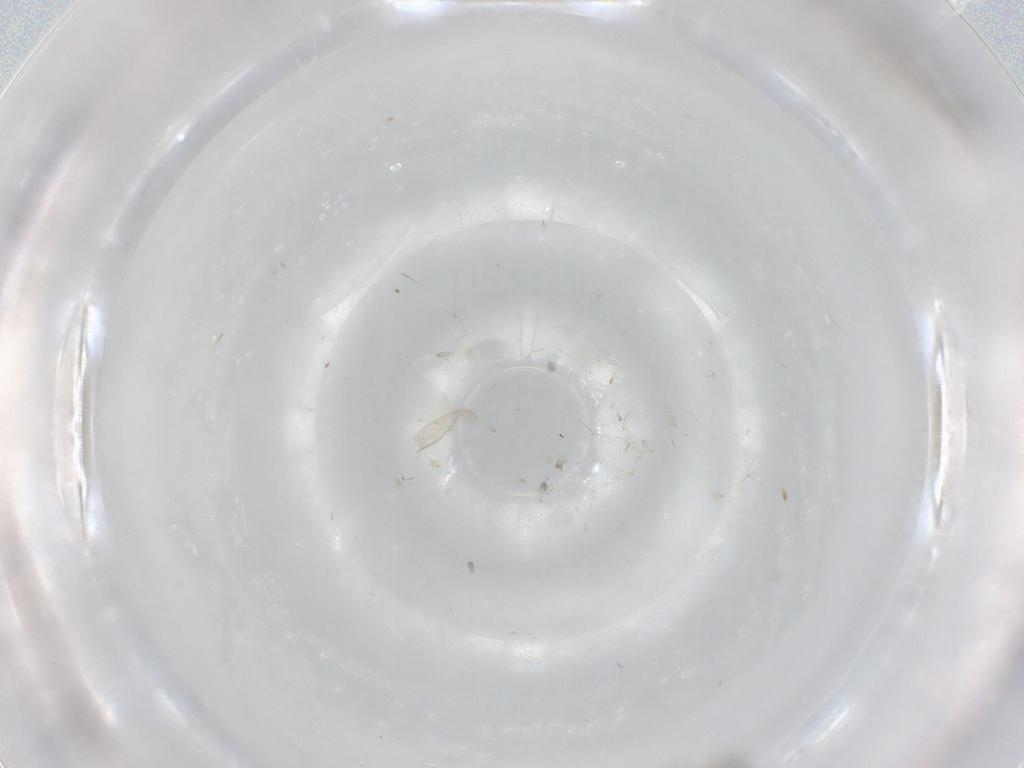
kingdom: Animalia
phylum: Arthropoda
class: Insecta
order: Diptera
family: Ceratopogonidae
